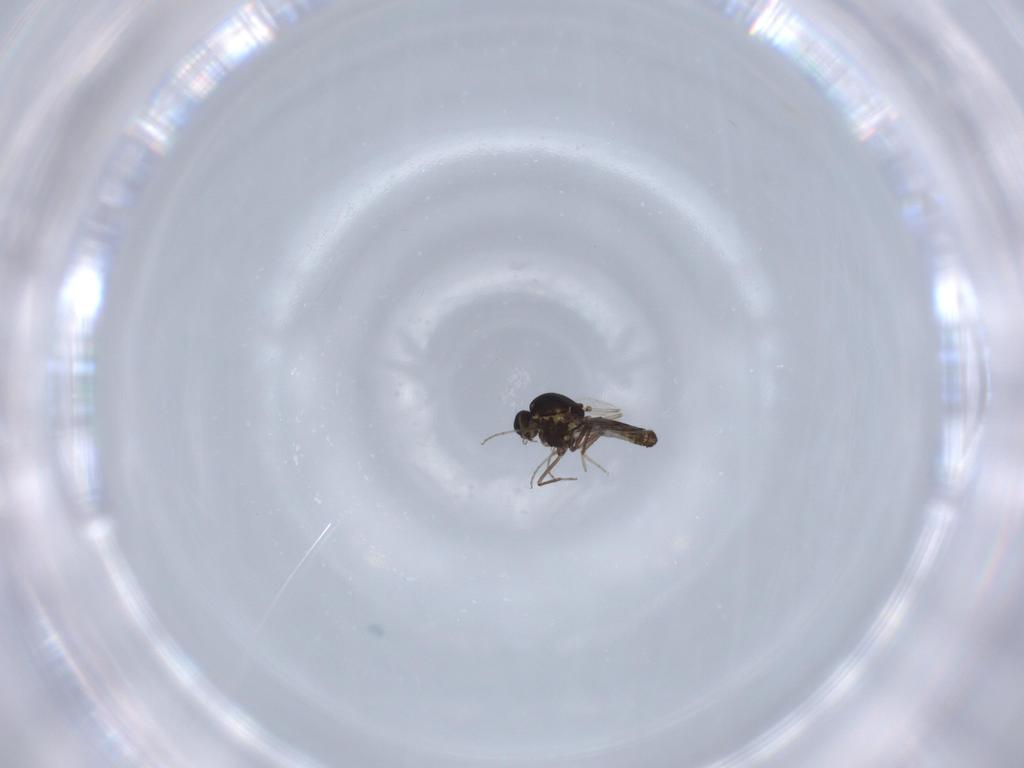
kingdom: Animalia
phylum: Arthropoda
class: Insecta
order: Diptera
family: Ceratopogonidae
